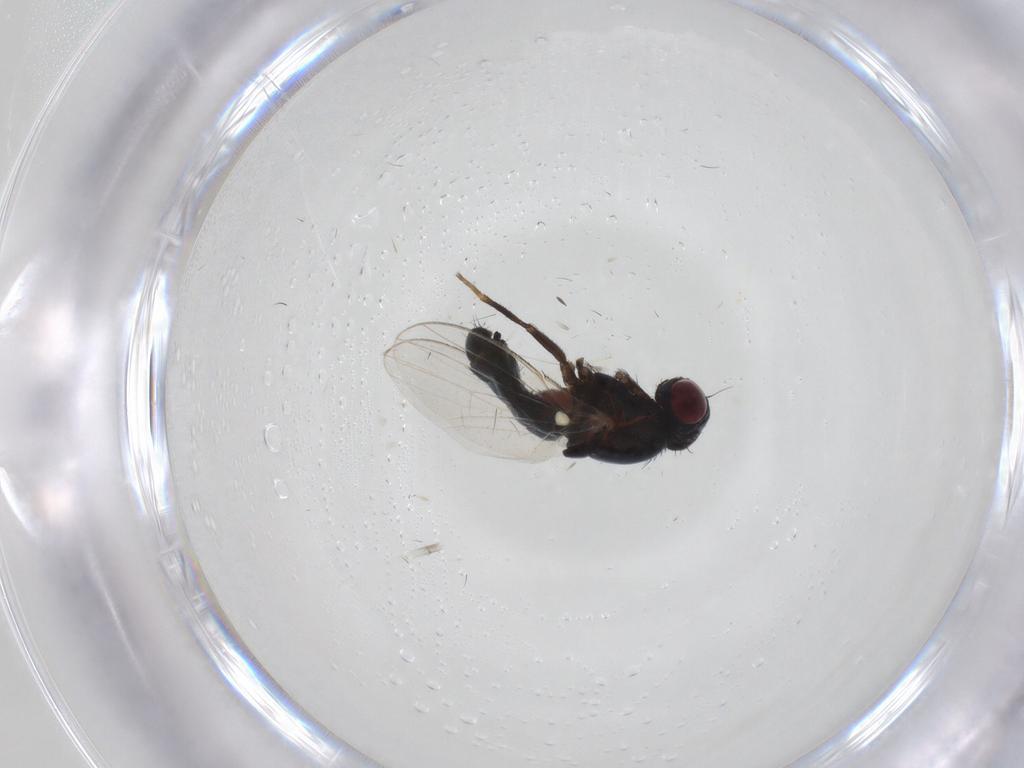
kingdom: Animalia
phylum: Arthropoda
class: Insecta
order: Diptera
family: Carnidae
